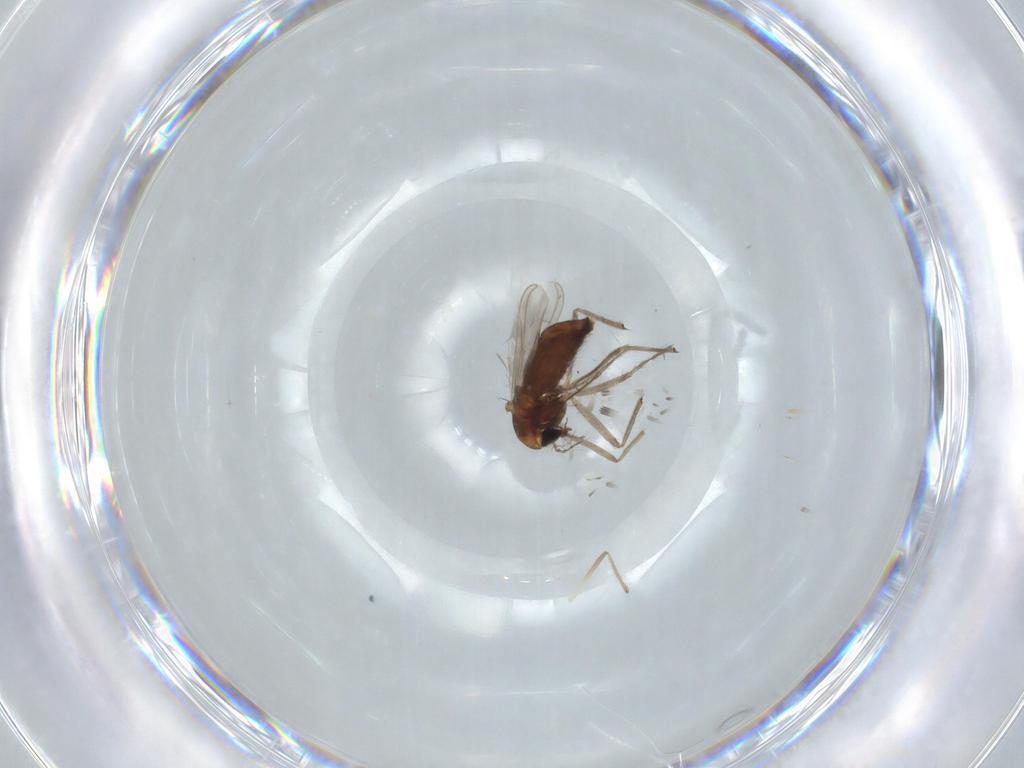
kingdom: Animalia
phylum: Arthropoda
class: Insecta
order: Diptera
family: Chironomidae
